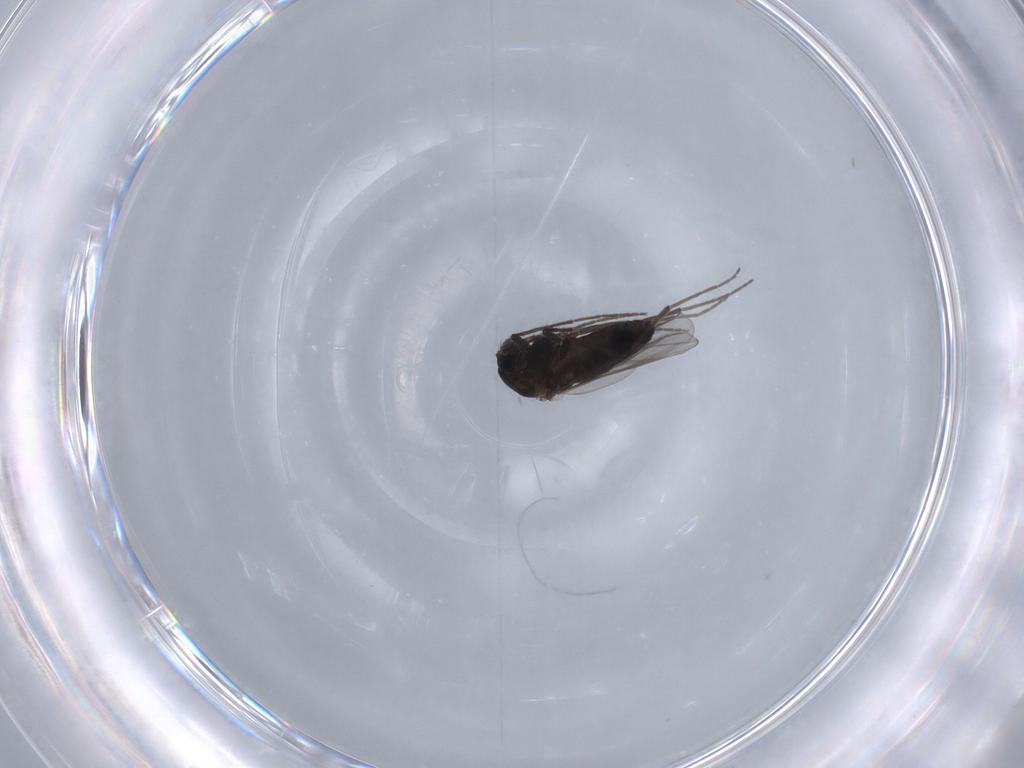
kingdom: Animalia
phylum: Arthropoda
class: Insecta
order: Diptera
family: Chironomidae
